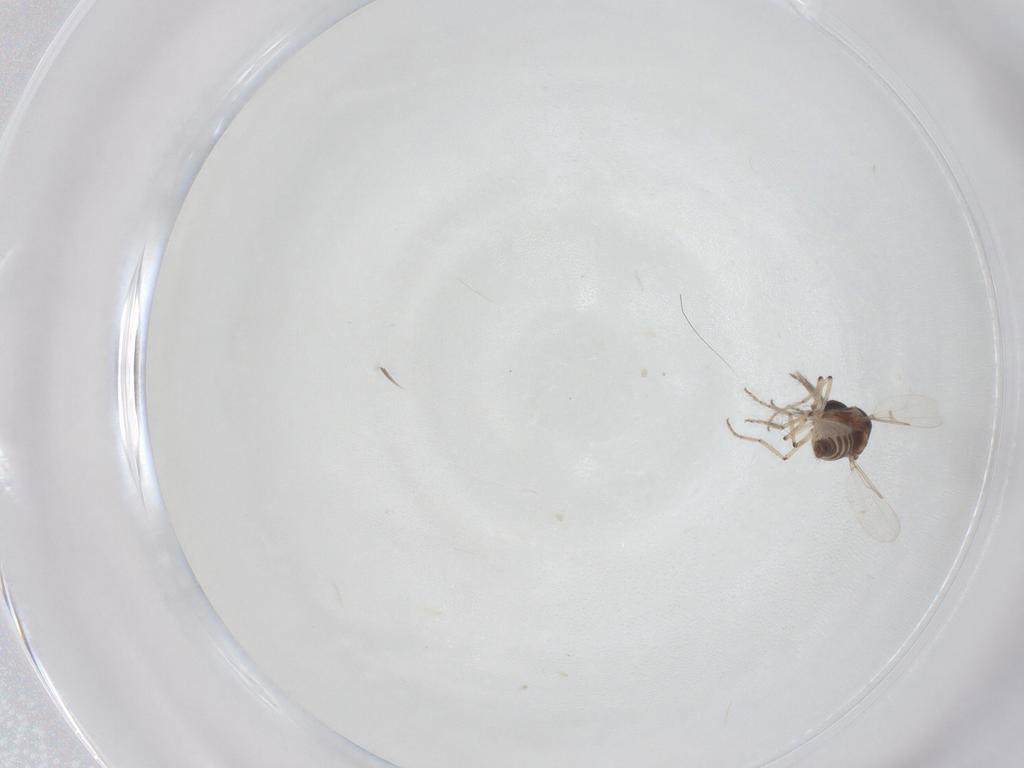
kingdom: Animalia
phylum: Arthropoda
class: Insecta
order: Diptera
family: Ceratopogonidae
